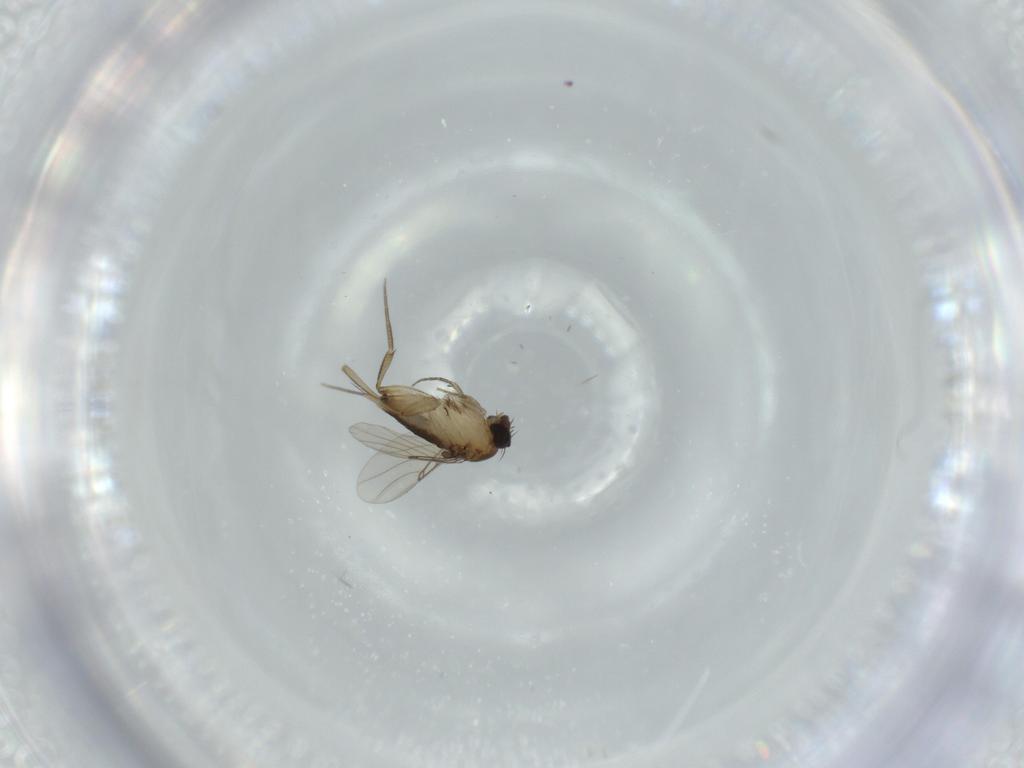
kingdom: Animalia
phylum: Arthropoda
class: Insecta
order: Diptera
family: Phoridae
